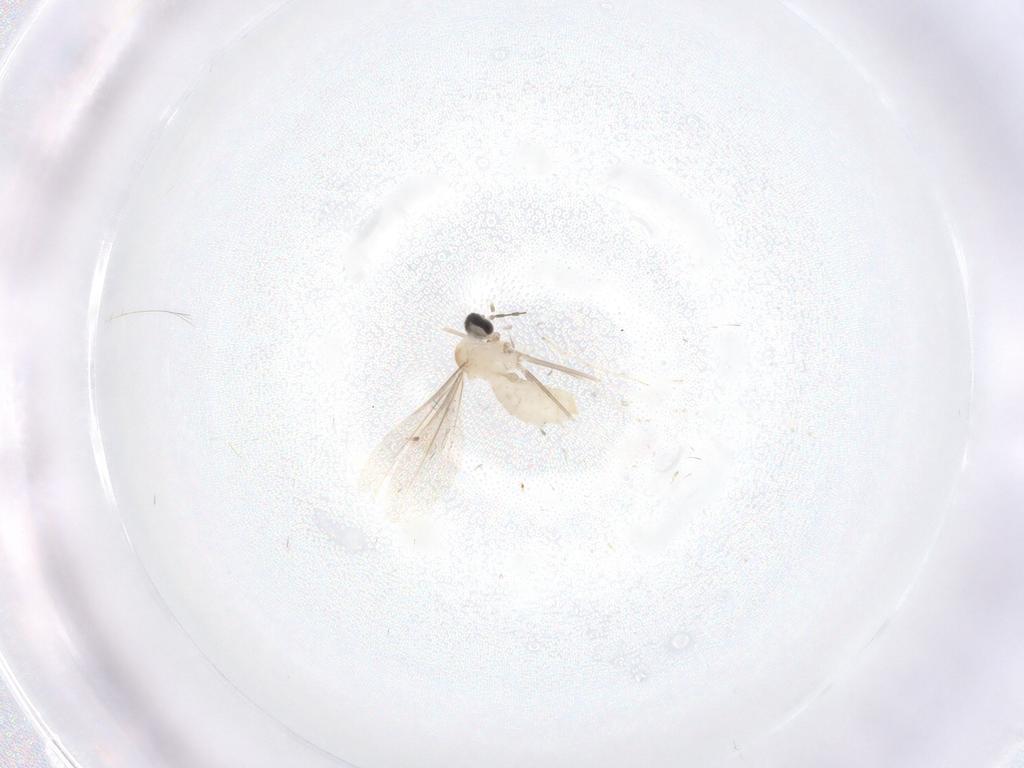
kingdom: Animalia
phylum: Arthropoda
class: Insecta
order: Diptera
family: Cecidomyiidae
